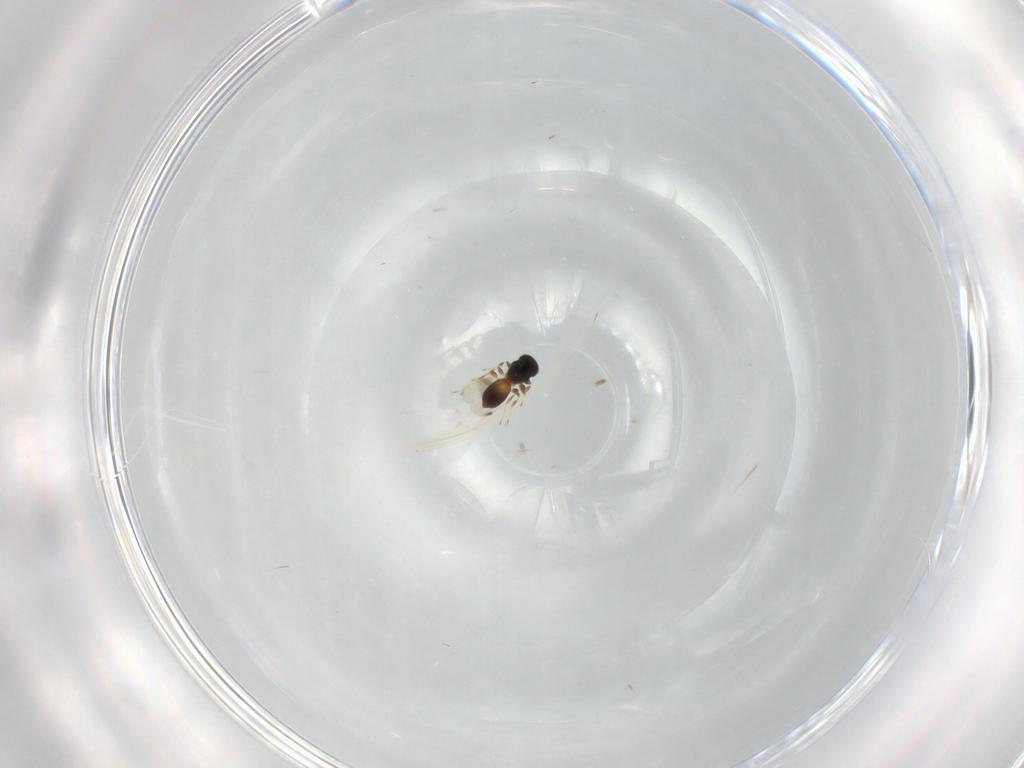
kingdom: Animalia
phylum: Arthropoda
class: Insecta
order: Hymenoptera
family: Platygastridae
